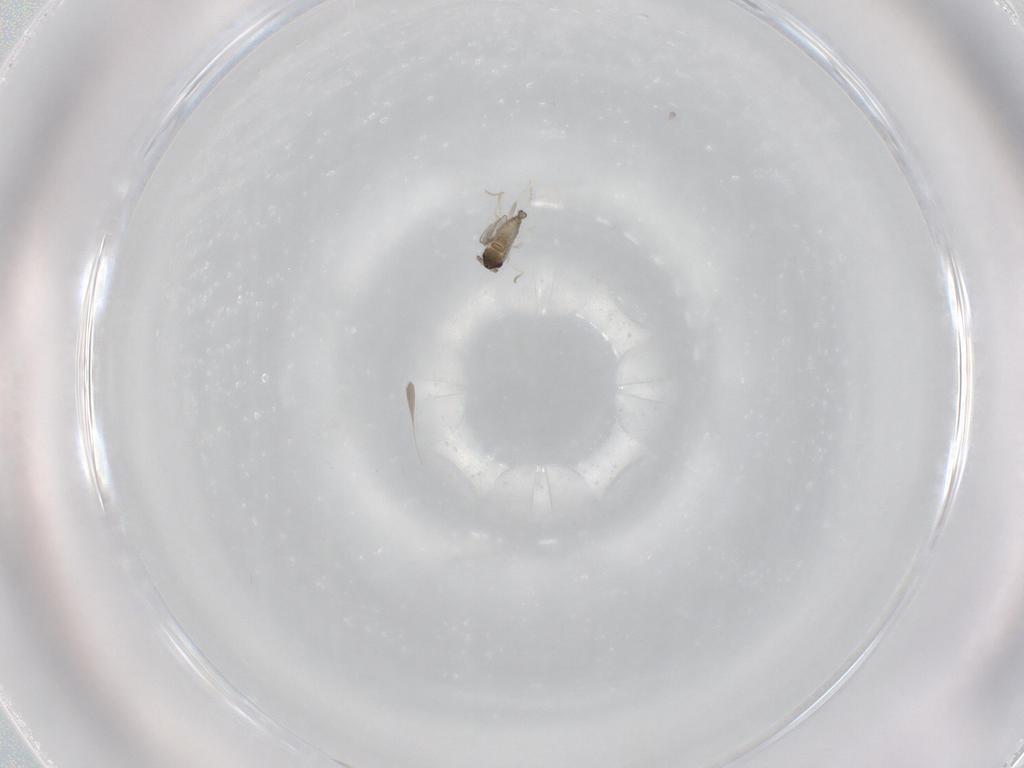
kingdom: Animalia
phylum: Arthropoda
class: Insecta
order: Diptera
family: Cecidomyiidae
